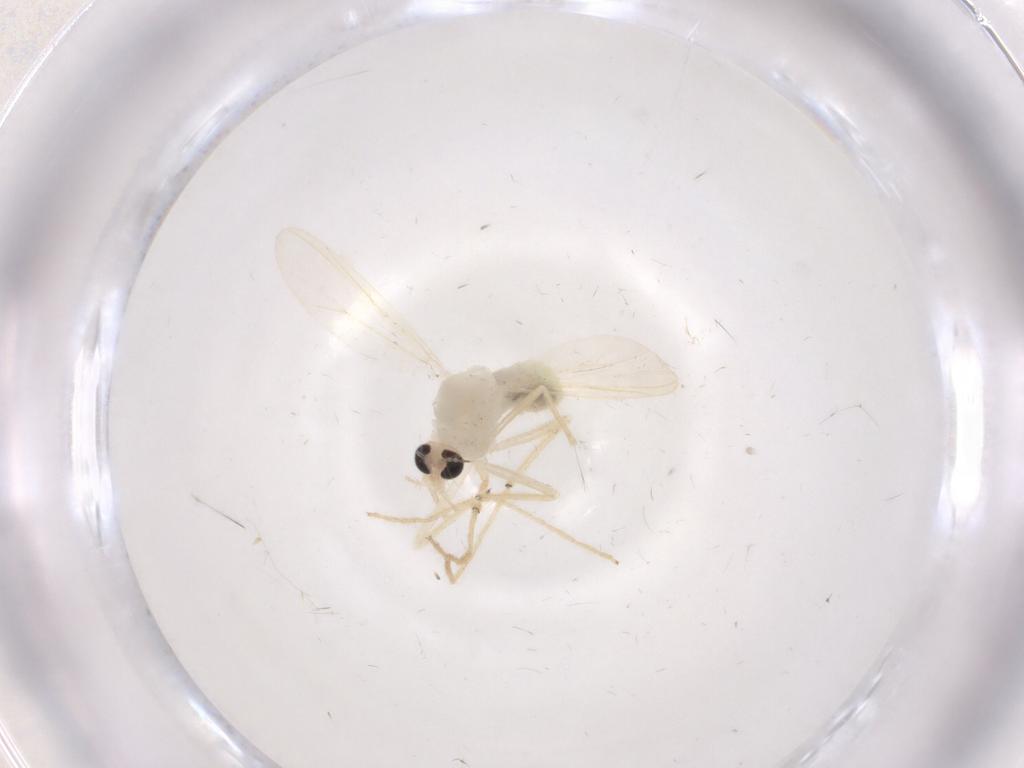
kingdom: Animalia
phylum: Arthropoda
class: Insecta
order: Diptera
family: Chironomidae
